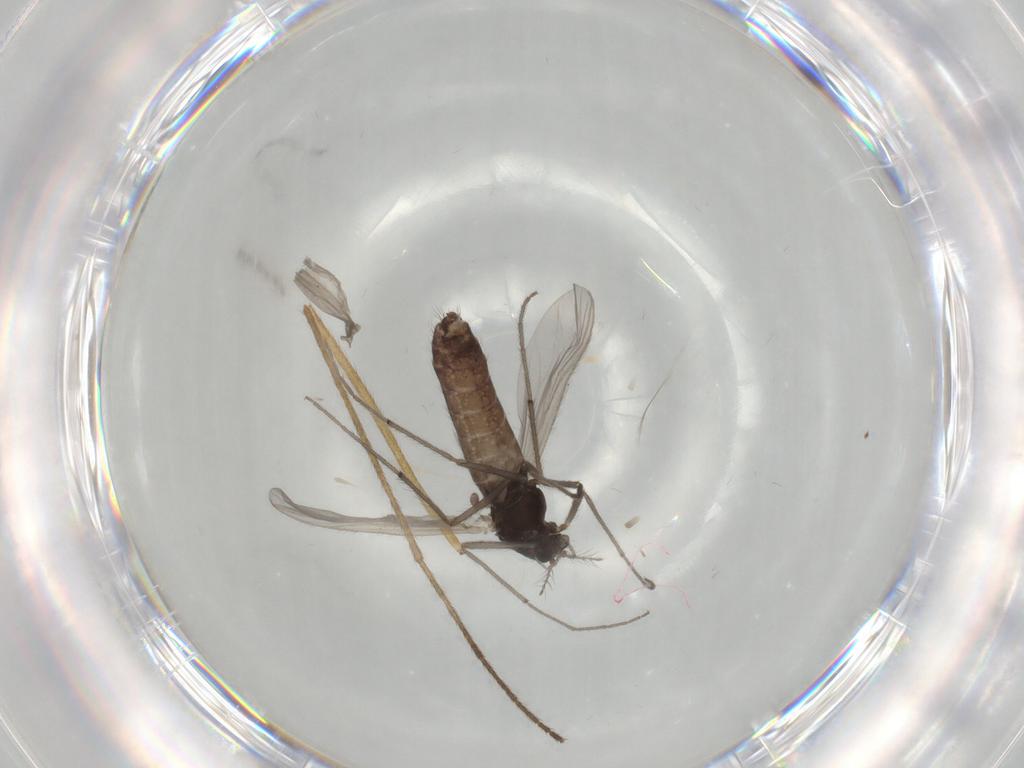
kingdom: Animalia
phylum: Arthropoda
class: Insecta
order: Diptera
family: Chironomidae
